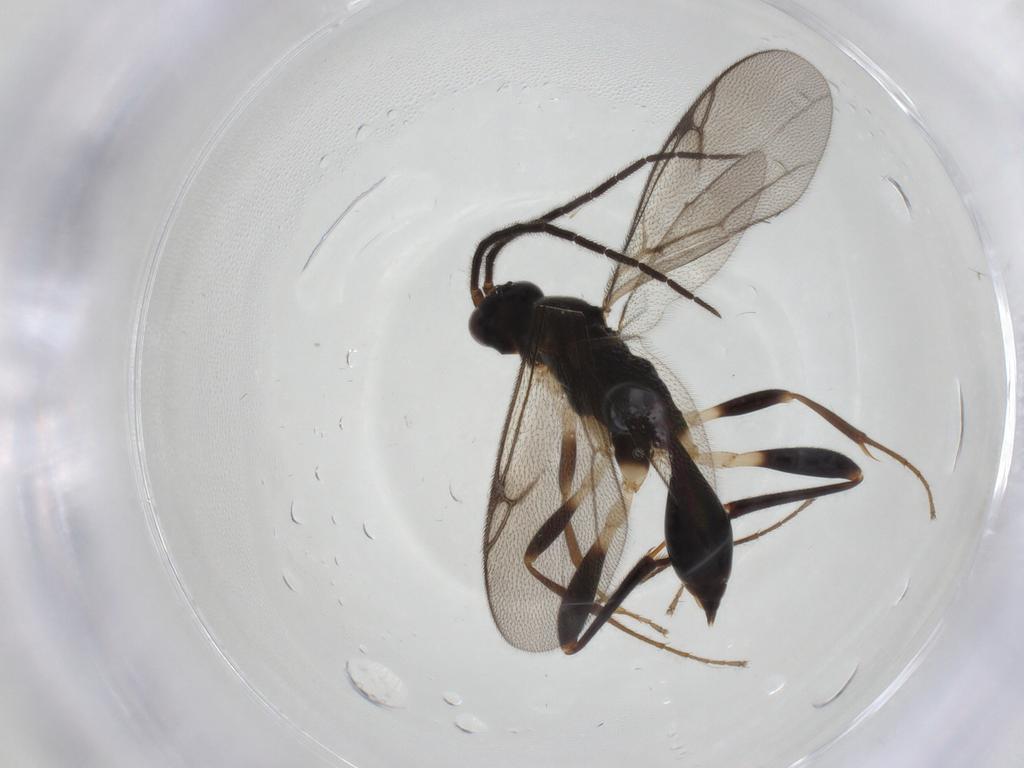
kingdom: Animalia
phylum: Arthropoda
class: Insecta
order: Hymenoptera
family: Proctotrupidae
